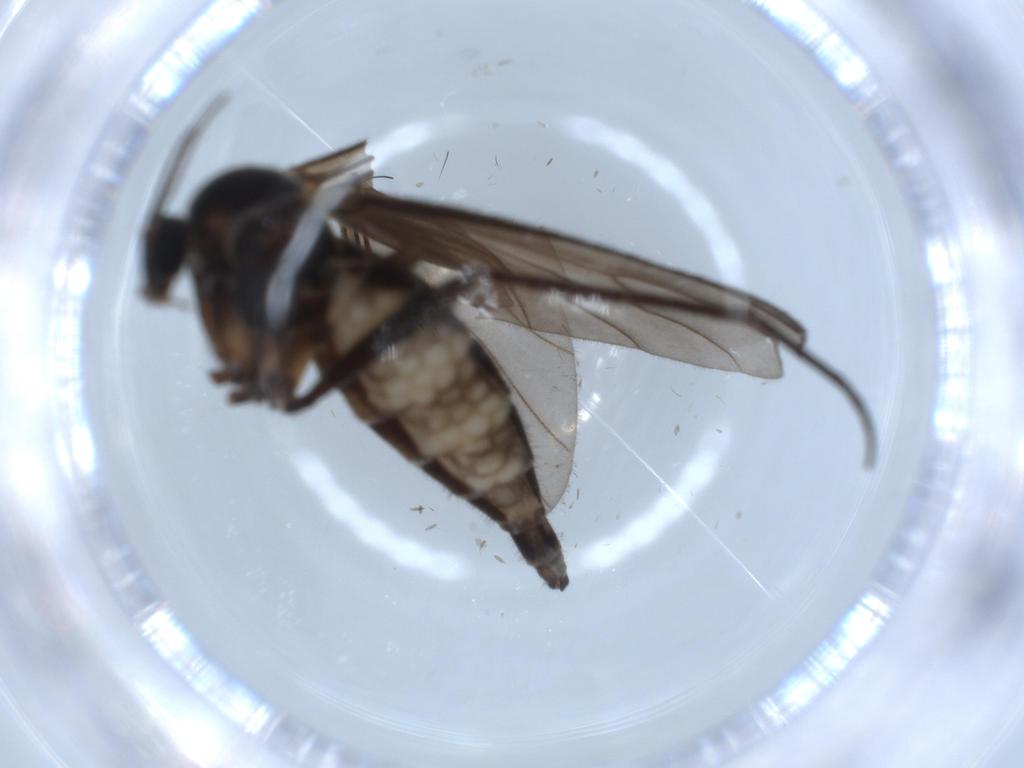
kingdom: Animalia
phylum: Arthropoda
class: Insecta
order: Diptera
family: Sciaridae
